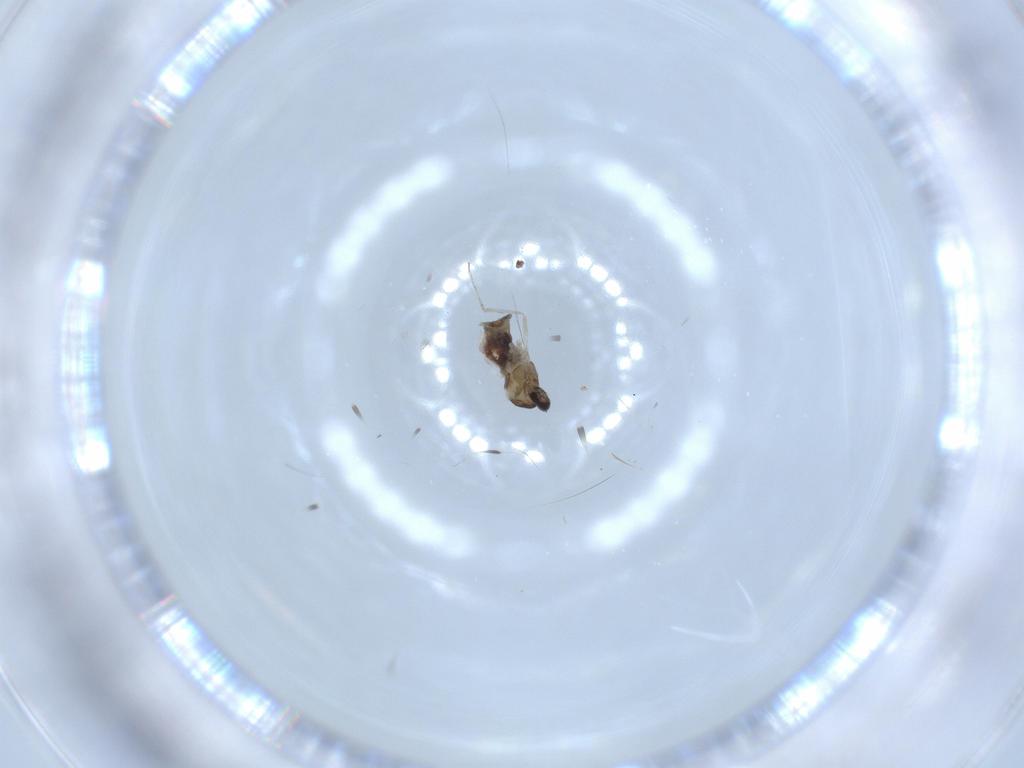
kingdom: Animalia
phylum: Arthropoda
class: Insecta
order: Diptera
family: Cecidomyiidae
